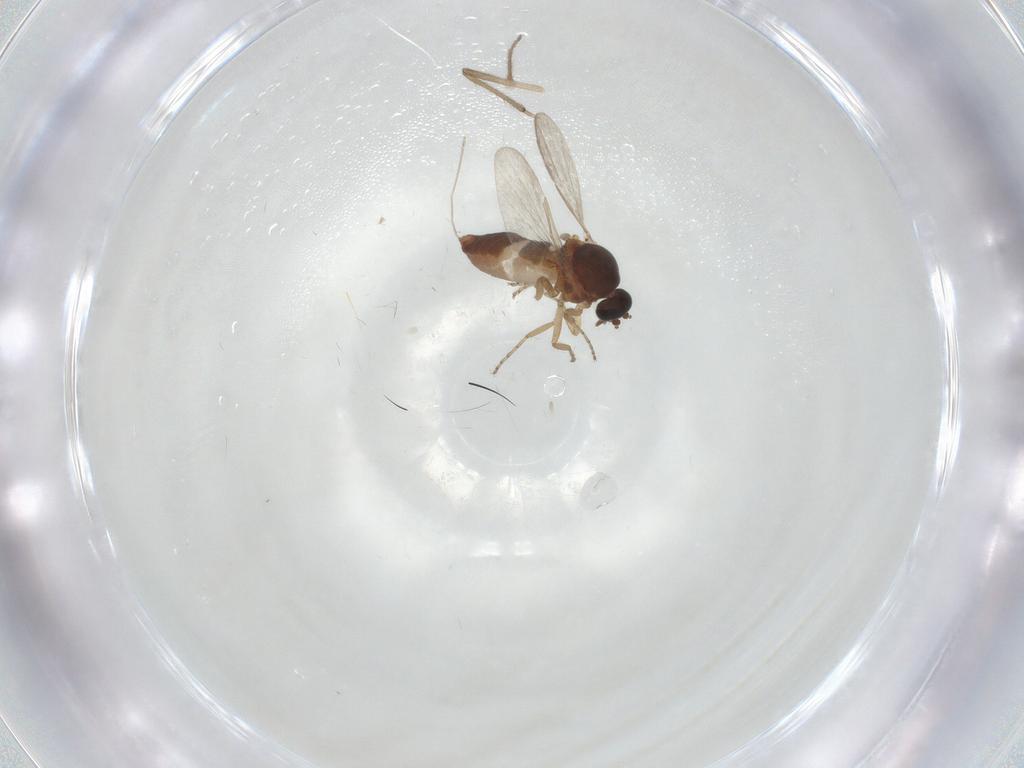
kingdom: Animalia
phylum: Arthropoda
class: Insecta
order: Diptera
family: Ceratopogonidae
